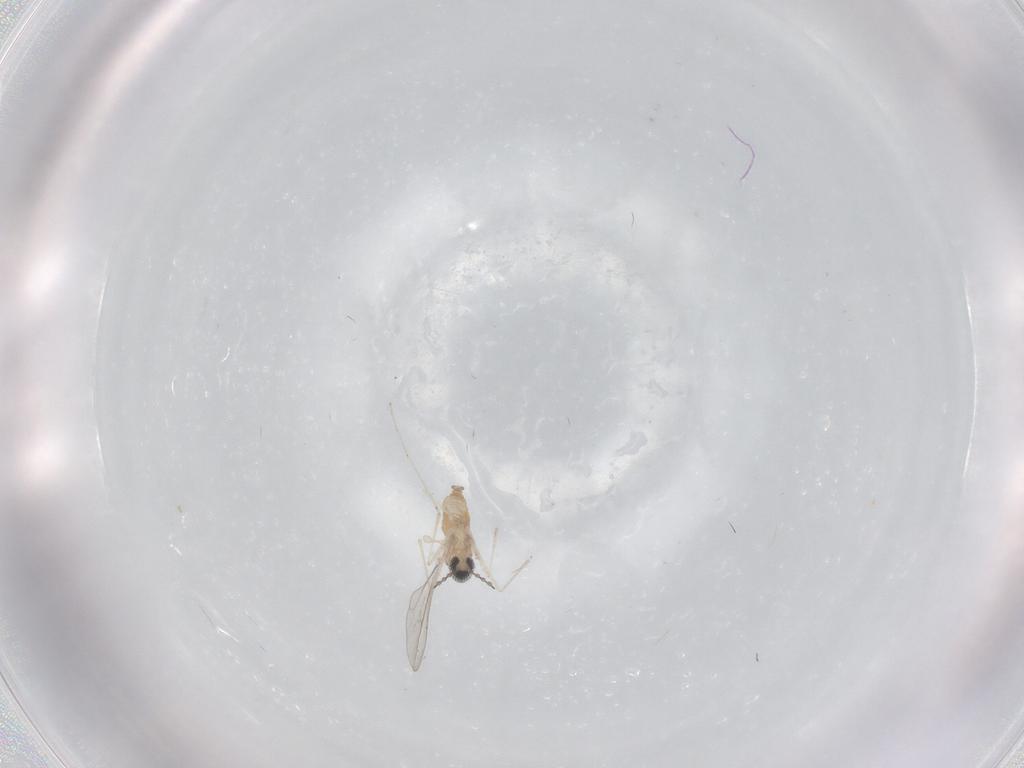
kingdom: Animalia
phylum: Arthropoda
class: Insecta
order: Diptera
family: Cecidomyiidae
